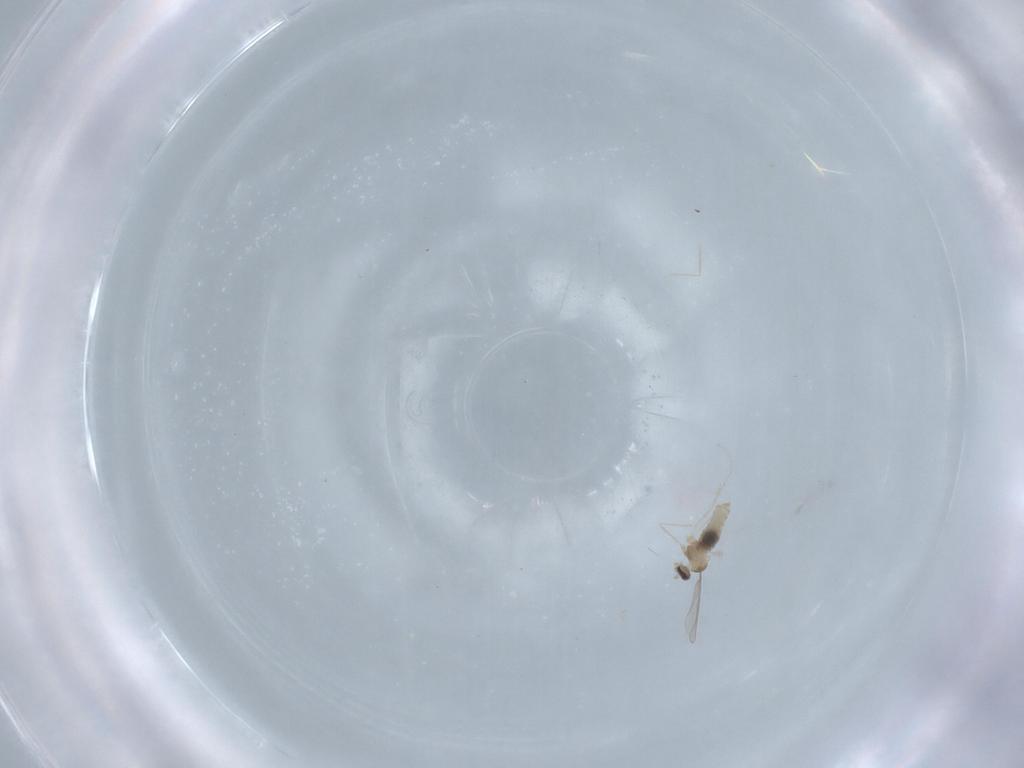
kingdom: Animalia
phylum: Arthropoda
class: Insecta
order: Diptera
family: Sciaridae
